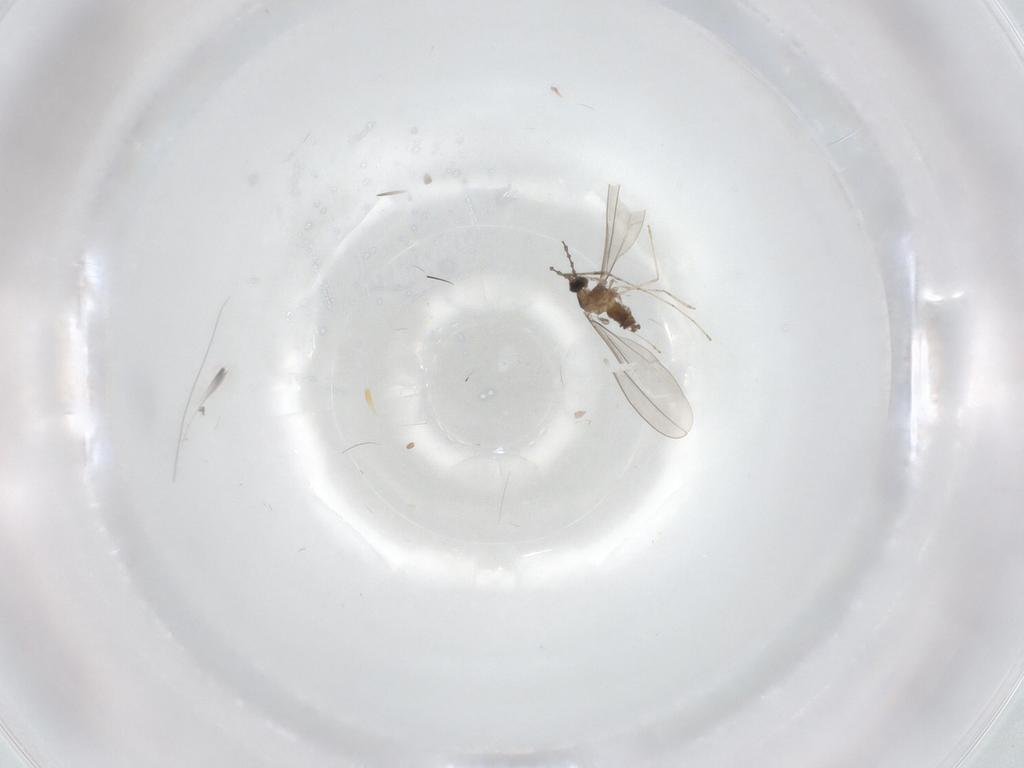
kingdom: Animalia
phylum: Arthropoda
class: Insecta
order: Diptera
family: Cecidomyiidae
